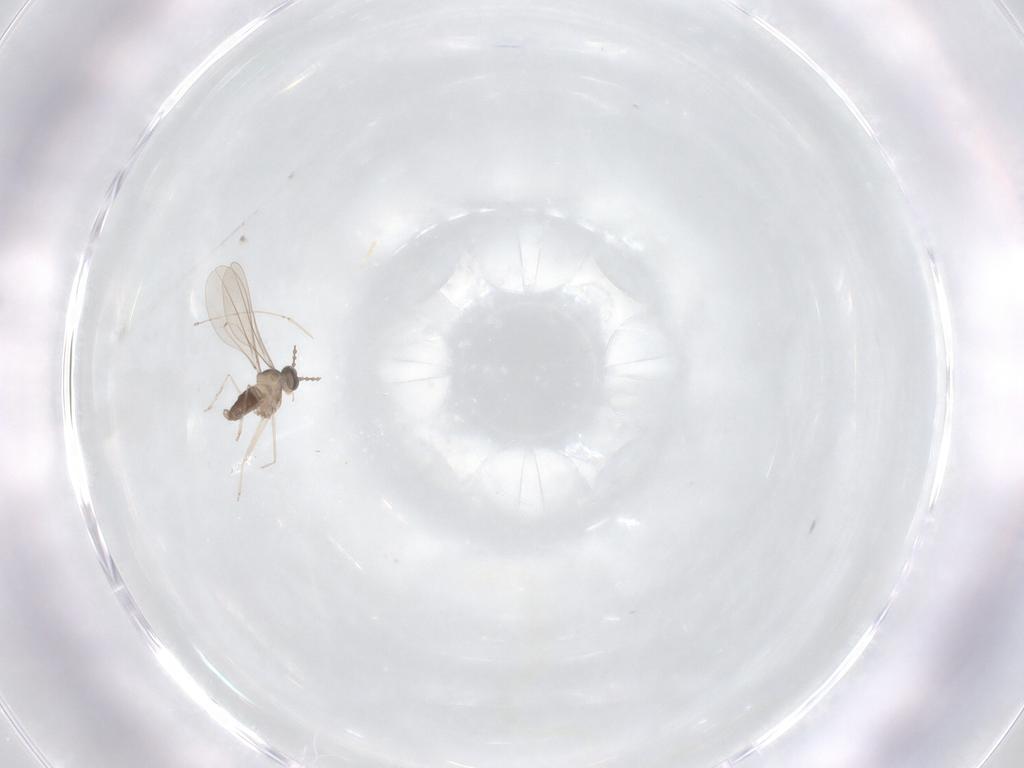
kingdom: Animalia
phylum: Arthropoda
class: Insecta
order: Diptera
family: Cecidomyiidae
